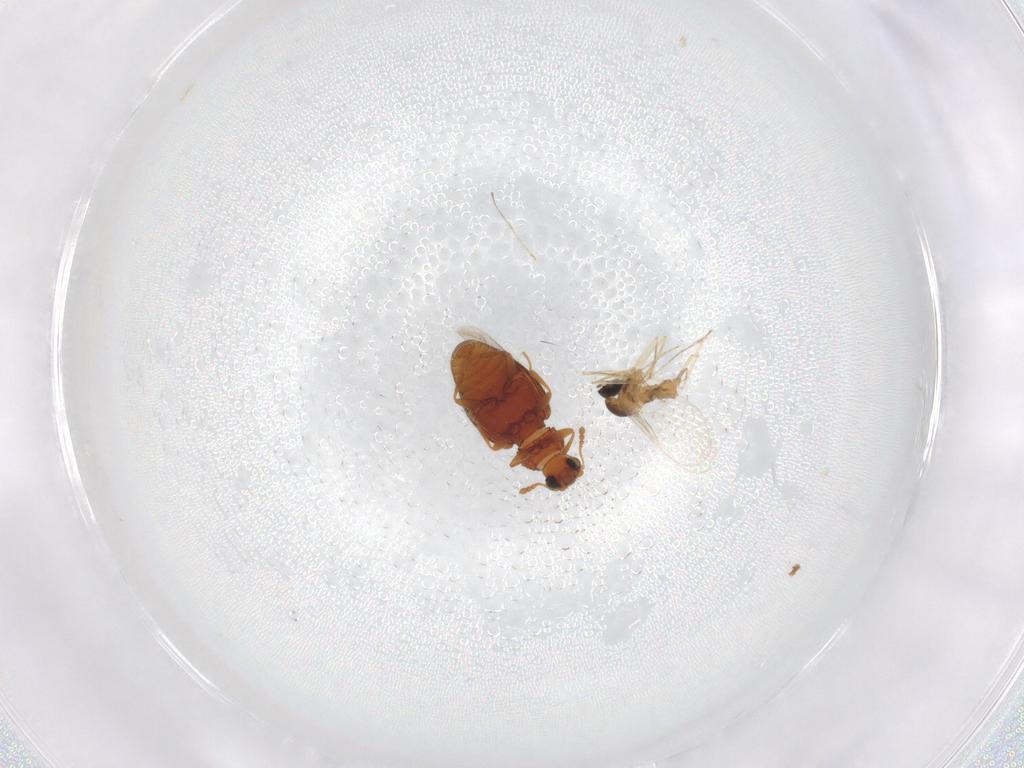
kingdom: Animalia
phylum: Arthropoda
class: Insecta
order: Diptera
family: Cecidomyiidae
